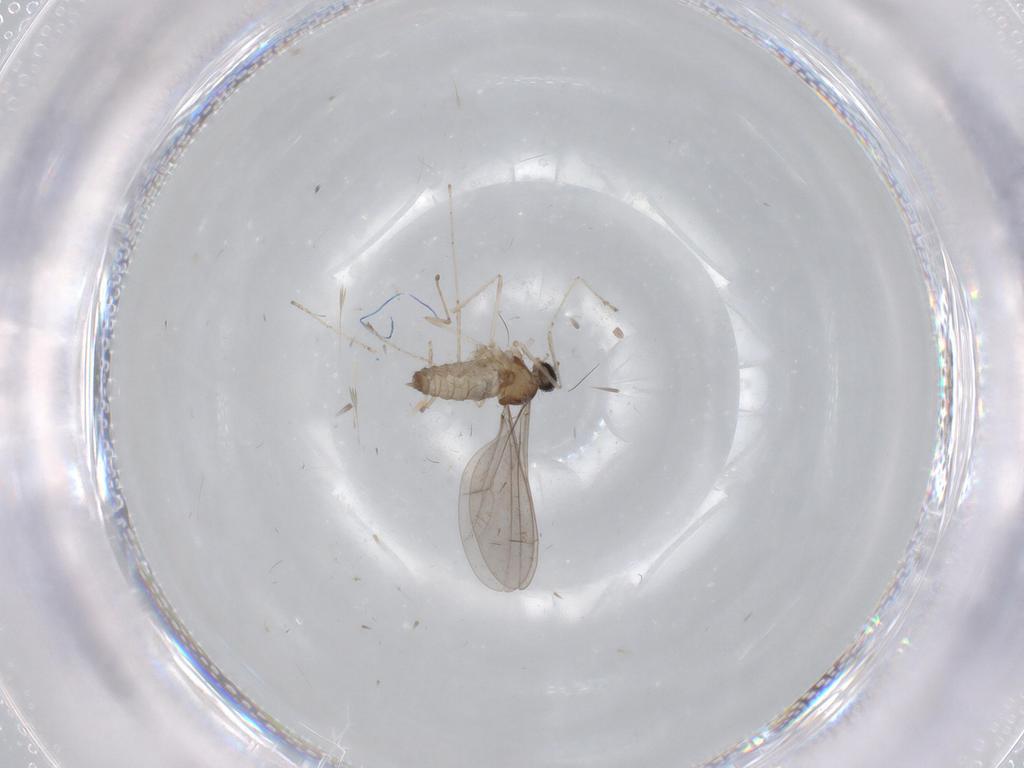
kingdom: Animalia
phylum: Arthropoda
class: Insecta
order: Diptera
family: Cecidomyiidae
